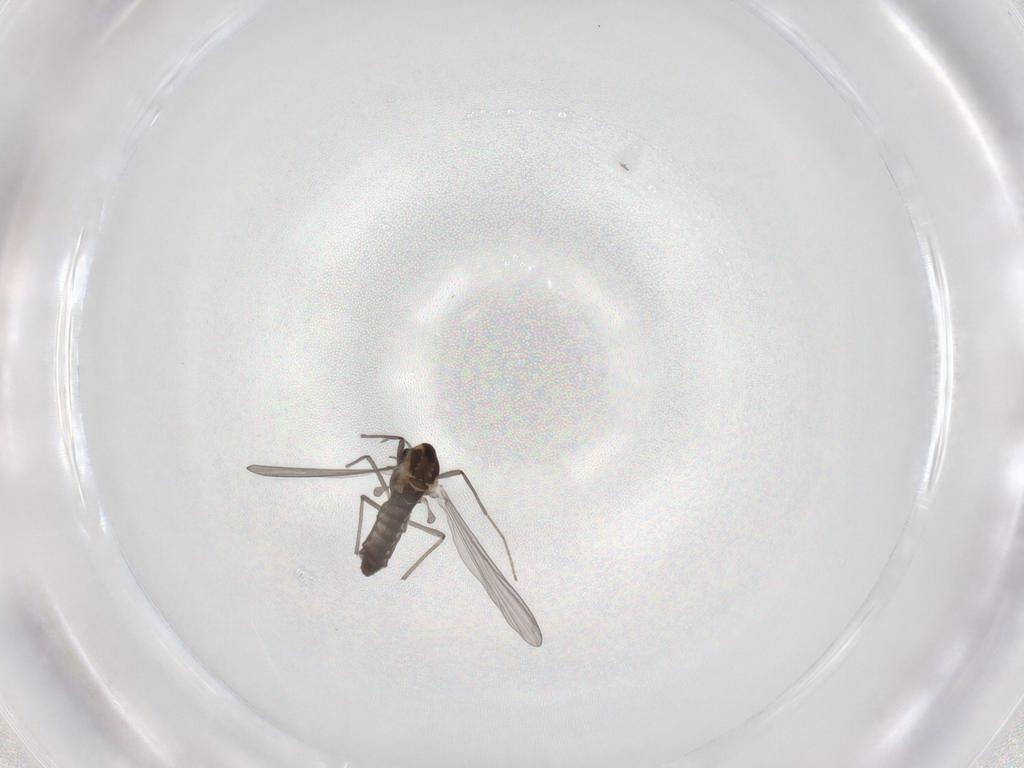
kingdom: Animalia
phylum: Arthropoda
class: Insecta
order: Diptera
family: Chironomidae
